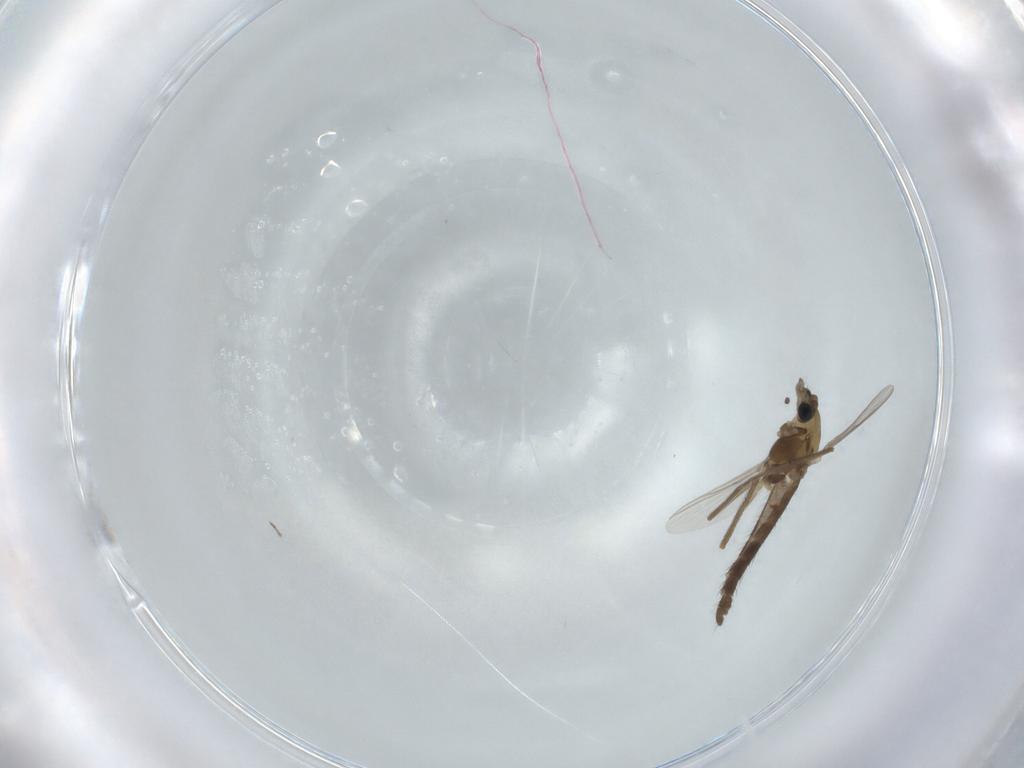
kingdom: Animalia
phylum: Arthropoda
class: Insecta
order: Diptera
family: Chironomidae
